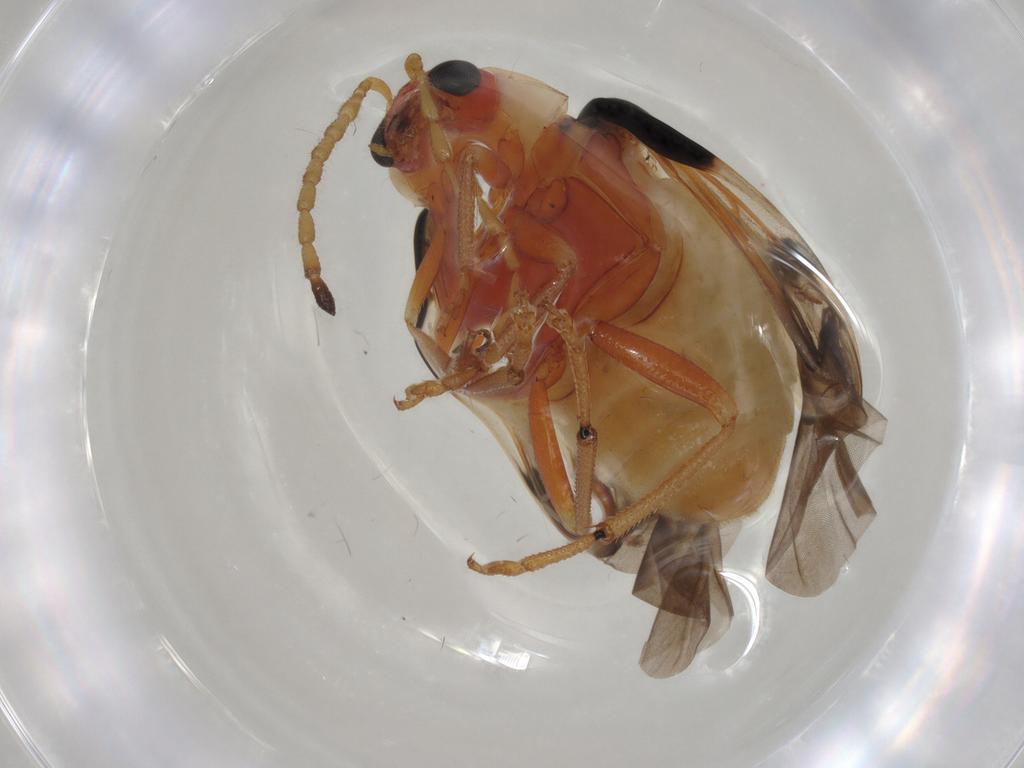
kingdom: Animalia
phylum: Arthropoda
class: Insecta
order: Coleoptera
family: Chrysomelidae
